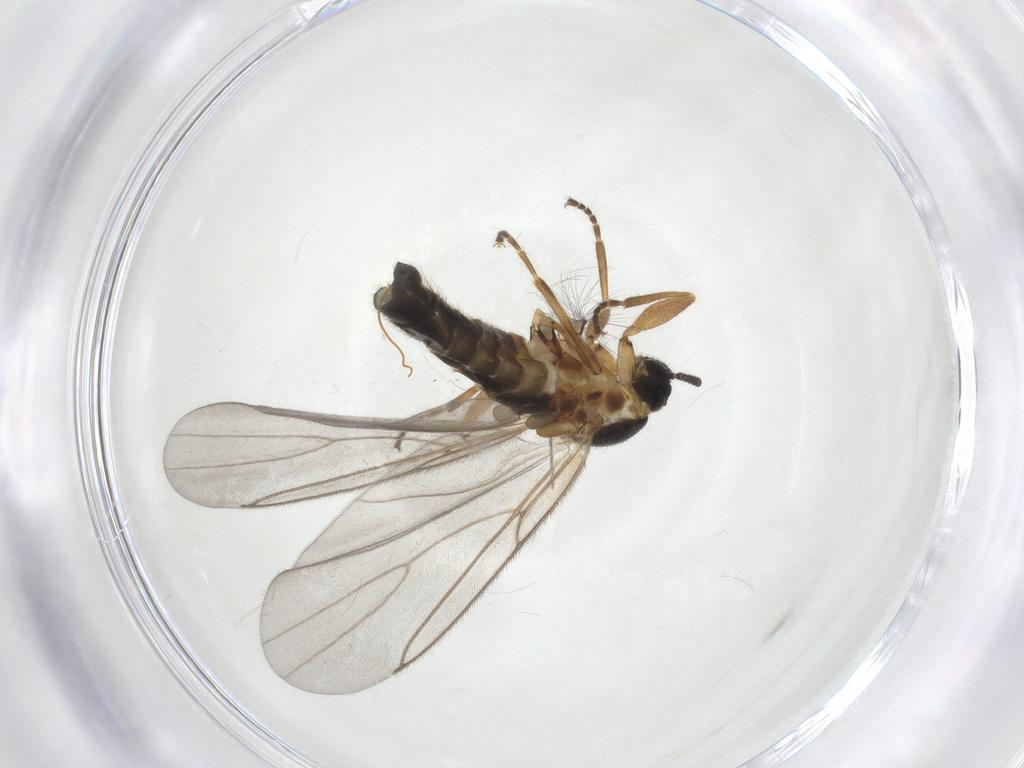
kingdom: Animalia
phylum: Arthropoda
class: Insecta
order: Diptera
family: Scatopsidae
